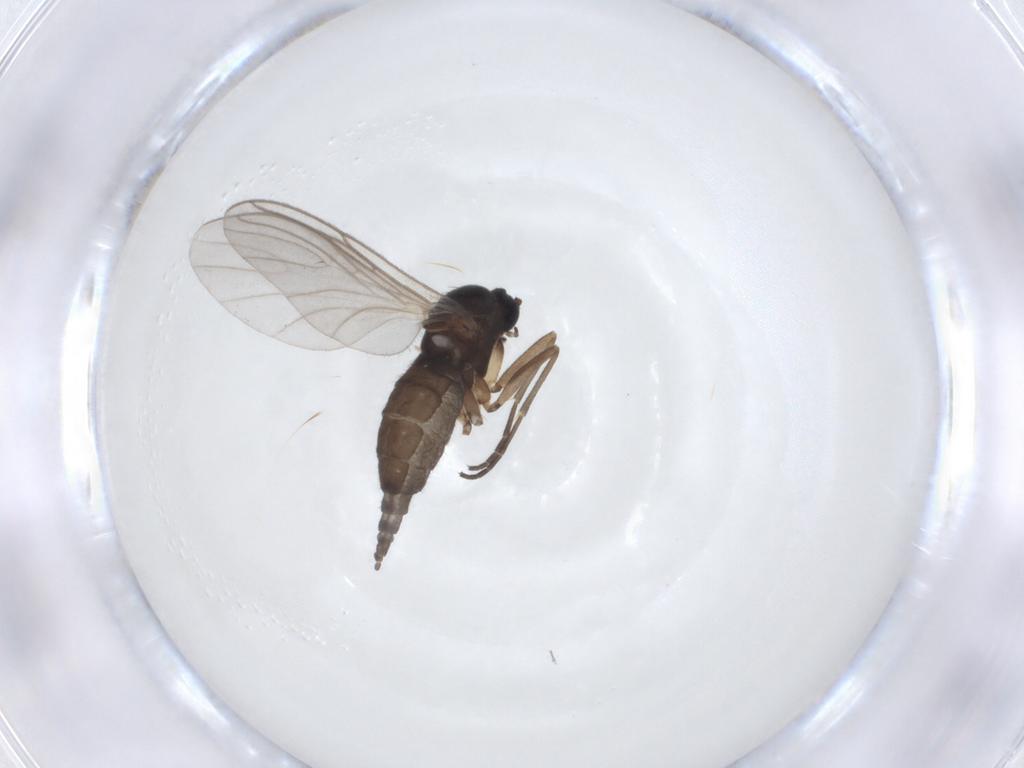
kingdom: Animalia
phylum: Arthropoda
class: Insecta
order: Diptera
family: Sciaridae
